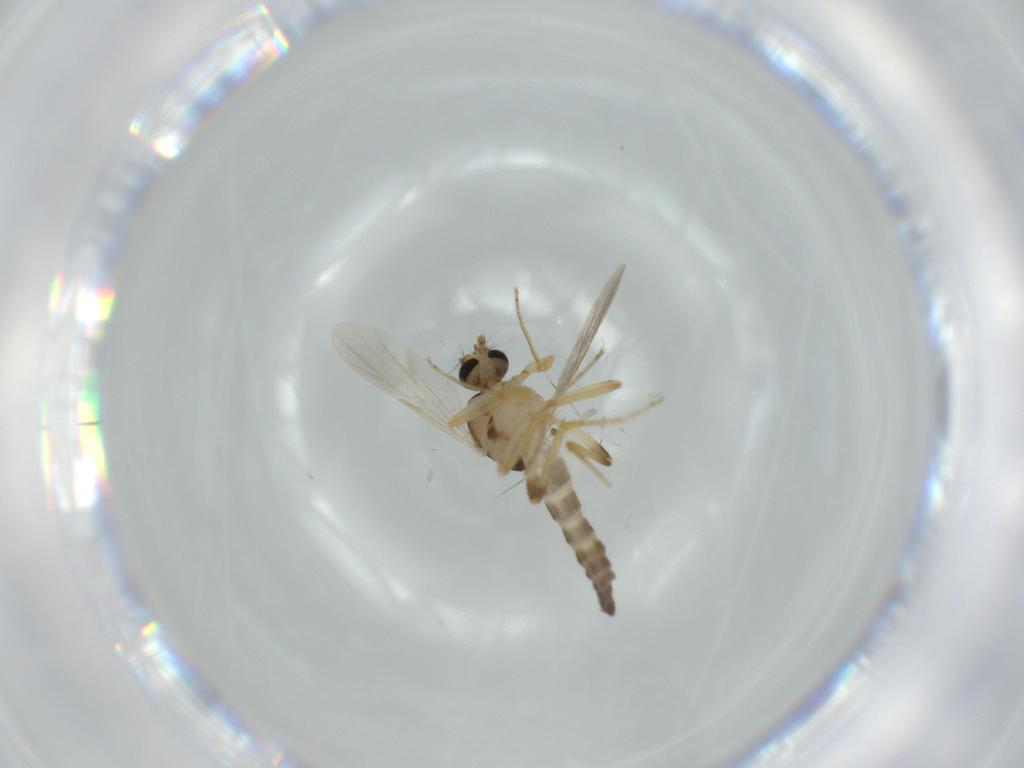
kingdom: Animalia
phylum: Arthropoda
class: Insecta
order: Diptera
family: Ceratopogonidae
